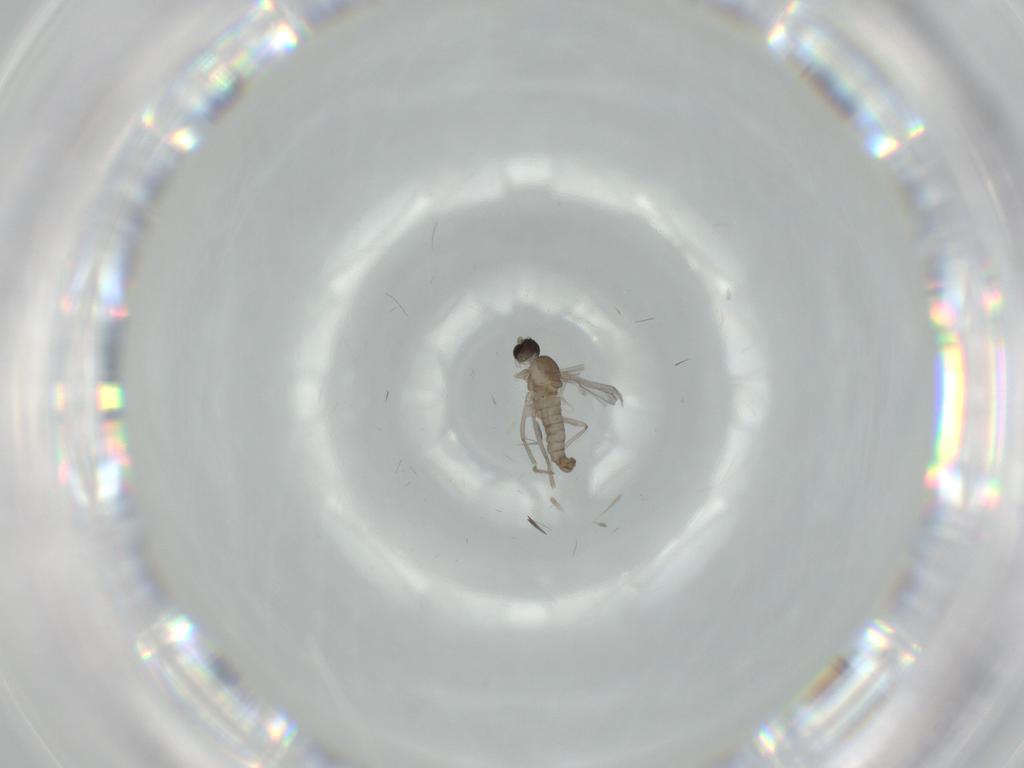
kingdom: Animalia
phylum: Arthropoda
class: Insecta
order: Diptera
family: Cecidomyiidae
